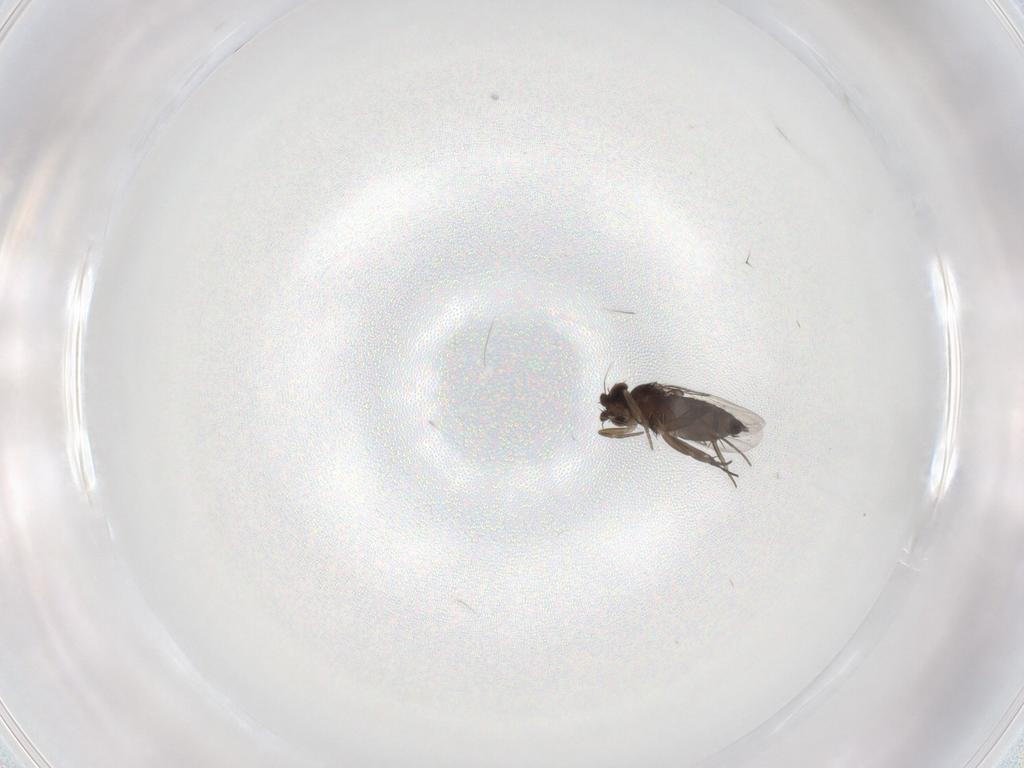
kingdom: Animalia
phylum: Arthropoda
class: Insecta
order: Diptera
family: Phoridae
